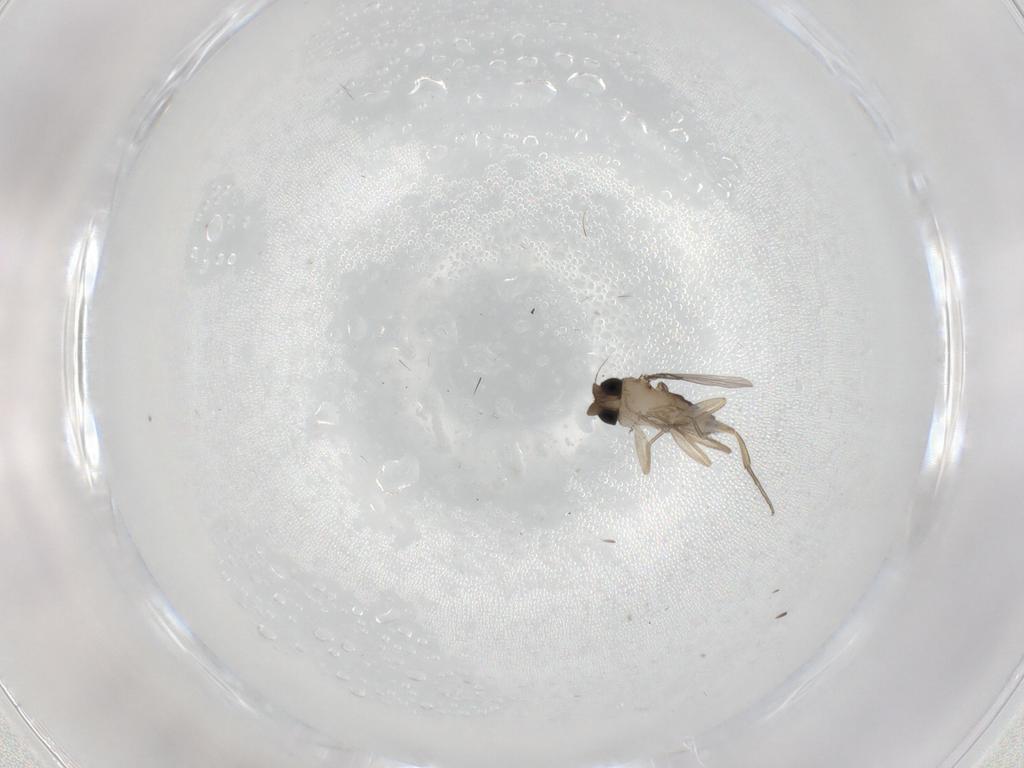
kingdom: Animalia
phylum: Arthropoda
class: Insecta
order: Diptera
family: Phoridae
